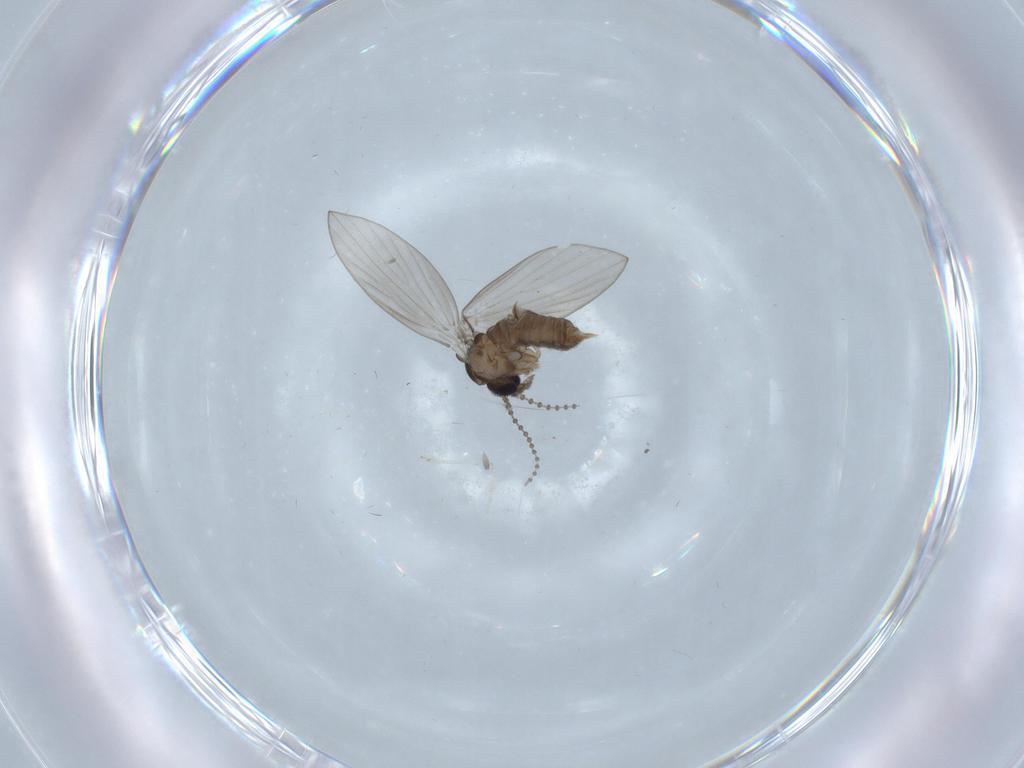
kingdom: Animalia
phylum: Arthropoda
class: Insecta
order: Diptera
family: Psychodidae
